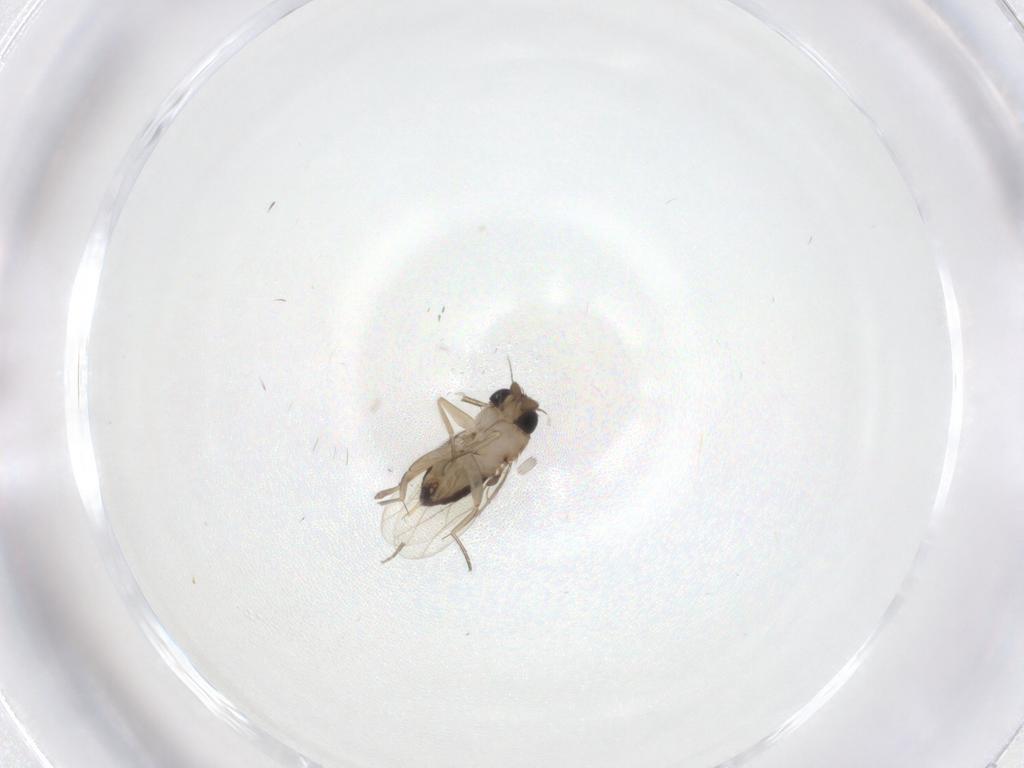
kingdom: Animalia
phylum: Arthropoda
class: Insecta
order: Diptera
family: Phoridae
